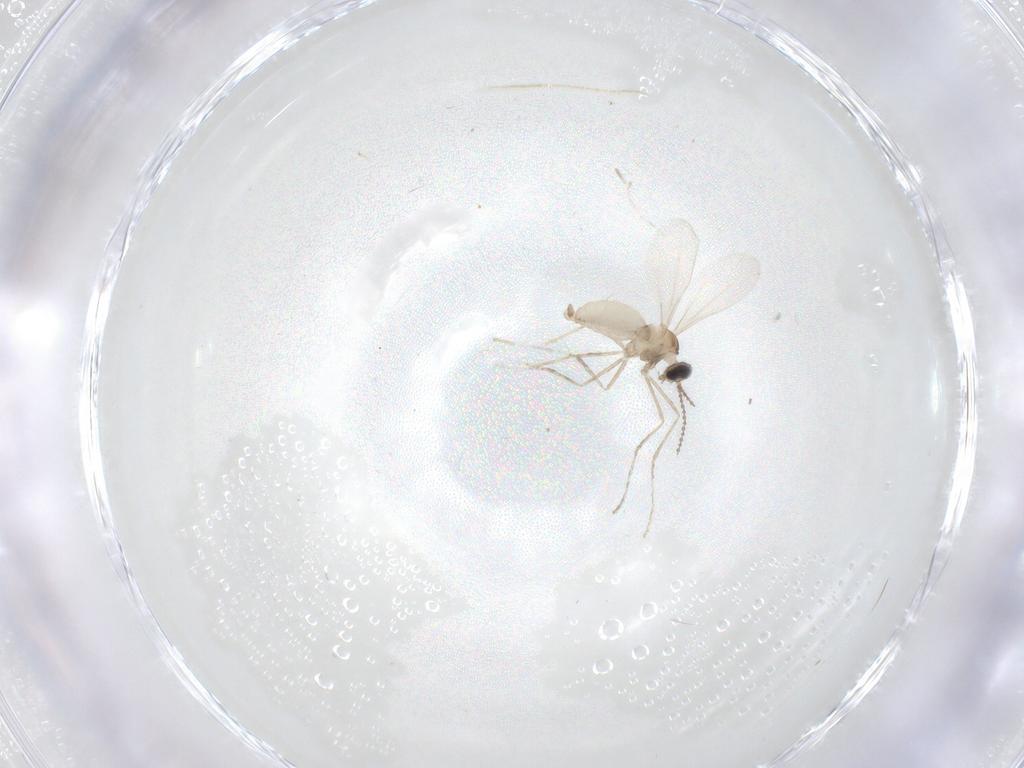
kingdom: Animalia
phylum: Arthropoda
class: Insecta
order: Diptera
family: Cecidomyiidae
